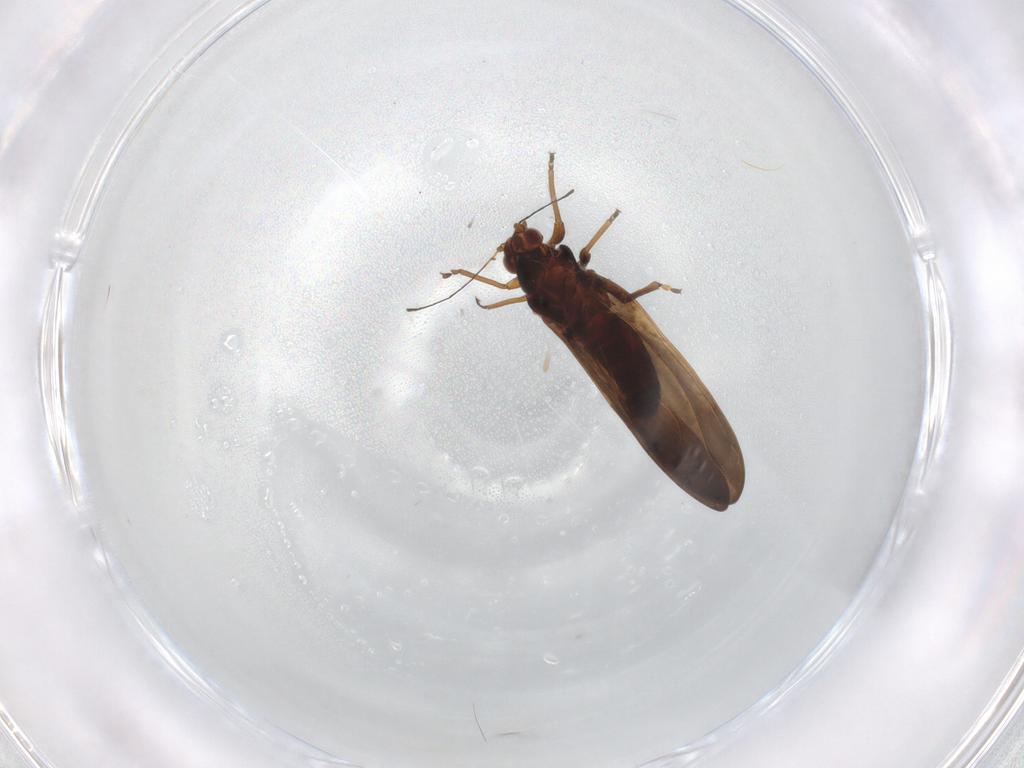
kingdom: Animalia
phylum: Arthropoda
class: Insecta
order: Hemiptera
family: Triozidae
